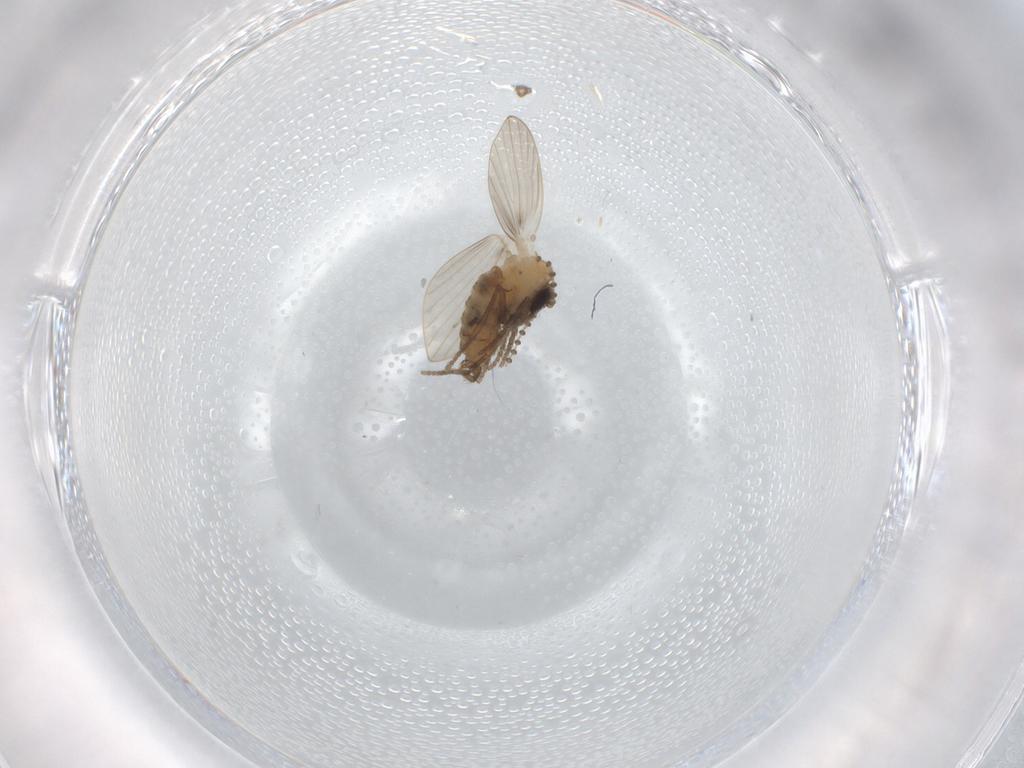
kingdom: Animalia
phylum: Arthropoda
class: Insecta
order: Diptera
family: Psychodidae
